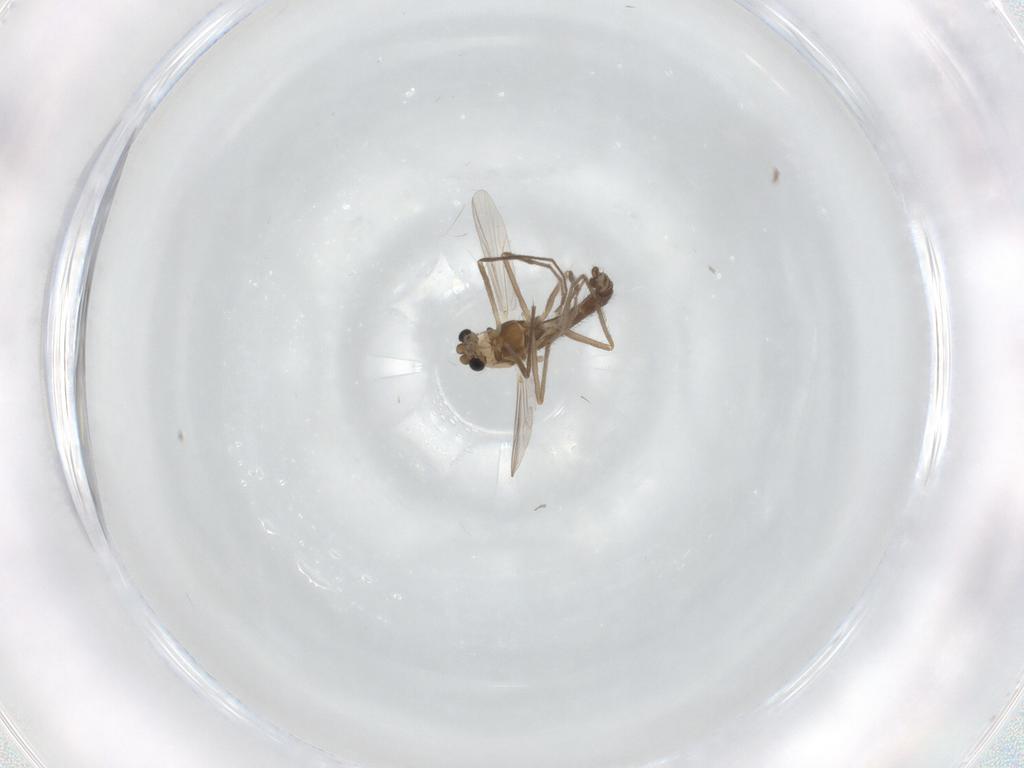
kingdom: Animalia
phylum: Arthropoda
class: Insecta
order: Diptera
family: Chironomidae
